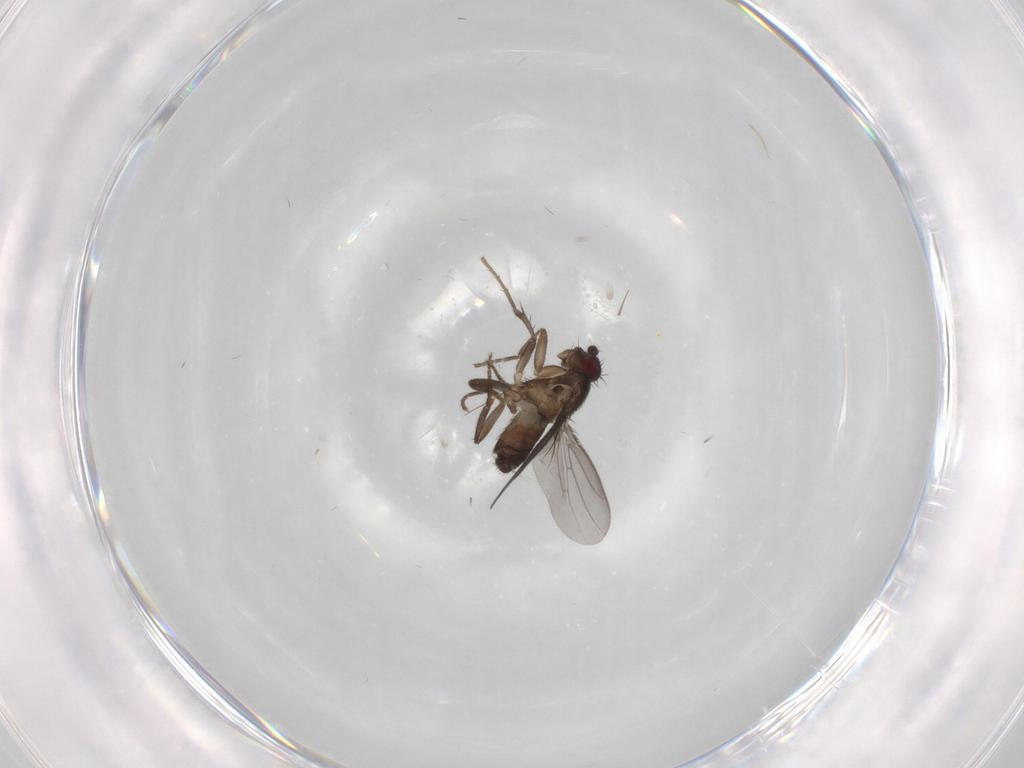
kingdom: Animalia
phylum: Arthropoda
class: Insecta
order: Diptera
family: Sphaeroceridae
